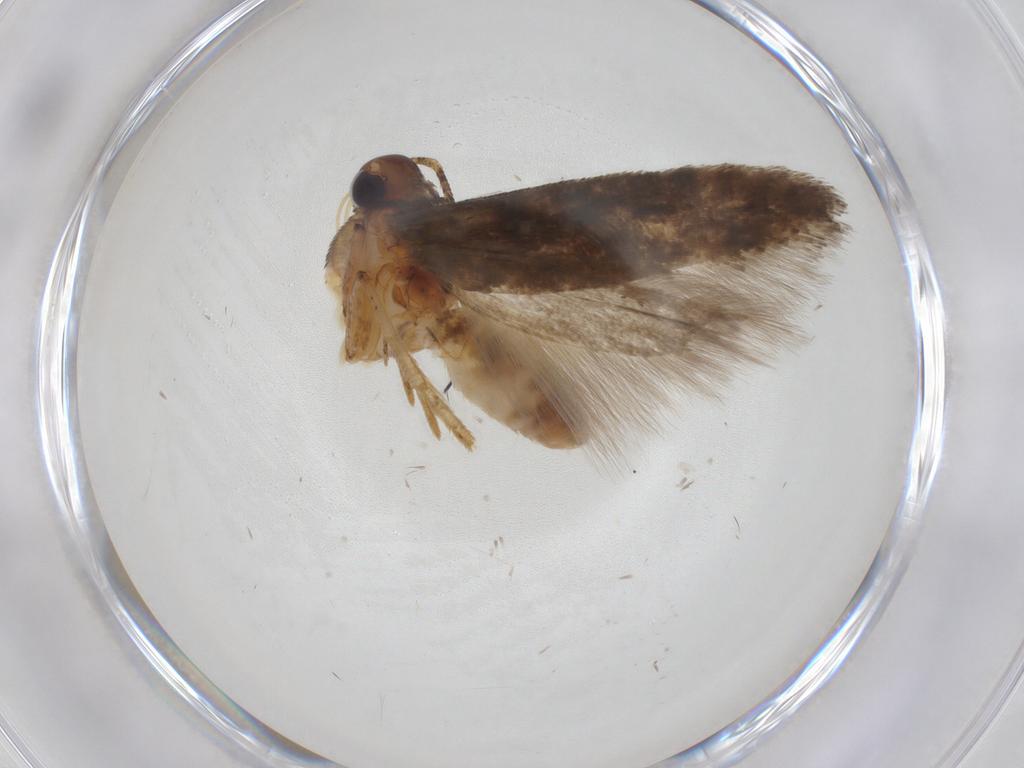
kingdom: Animalia
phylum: Arthropoda
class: Insecta
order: Lepidoptera
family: Gelechiidae
